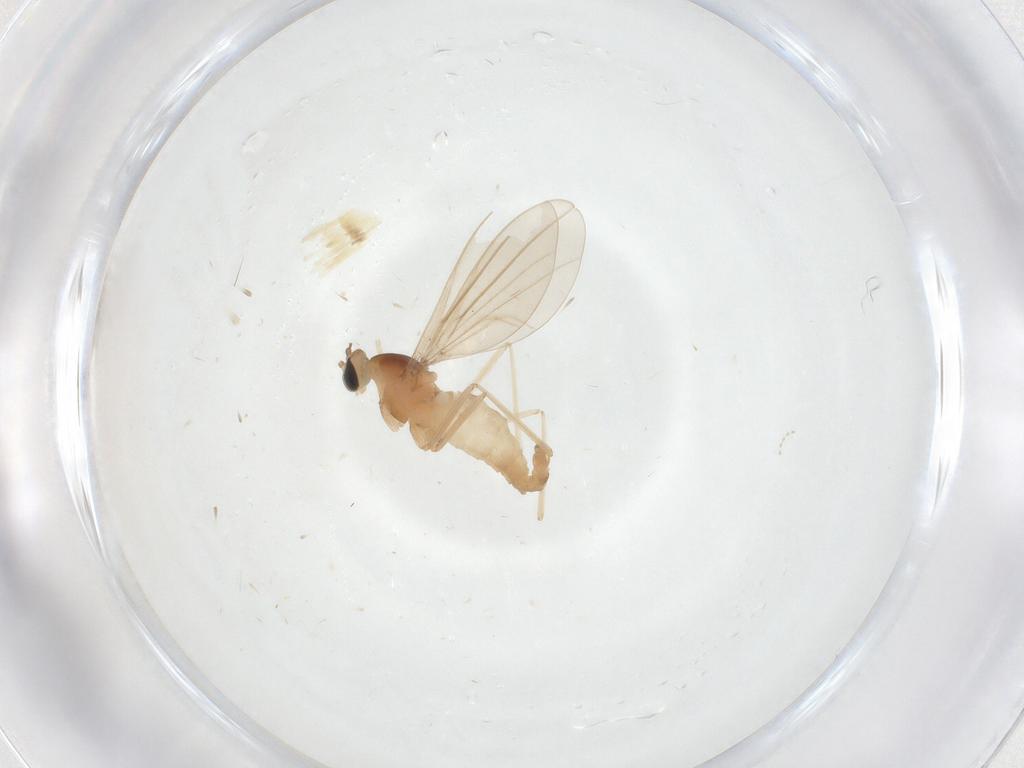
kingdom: Animalia
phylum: Arthropoda
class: Insecta
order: Diptera
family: Cecidomyiidae
